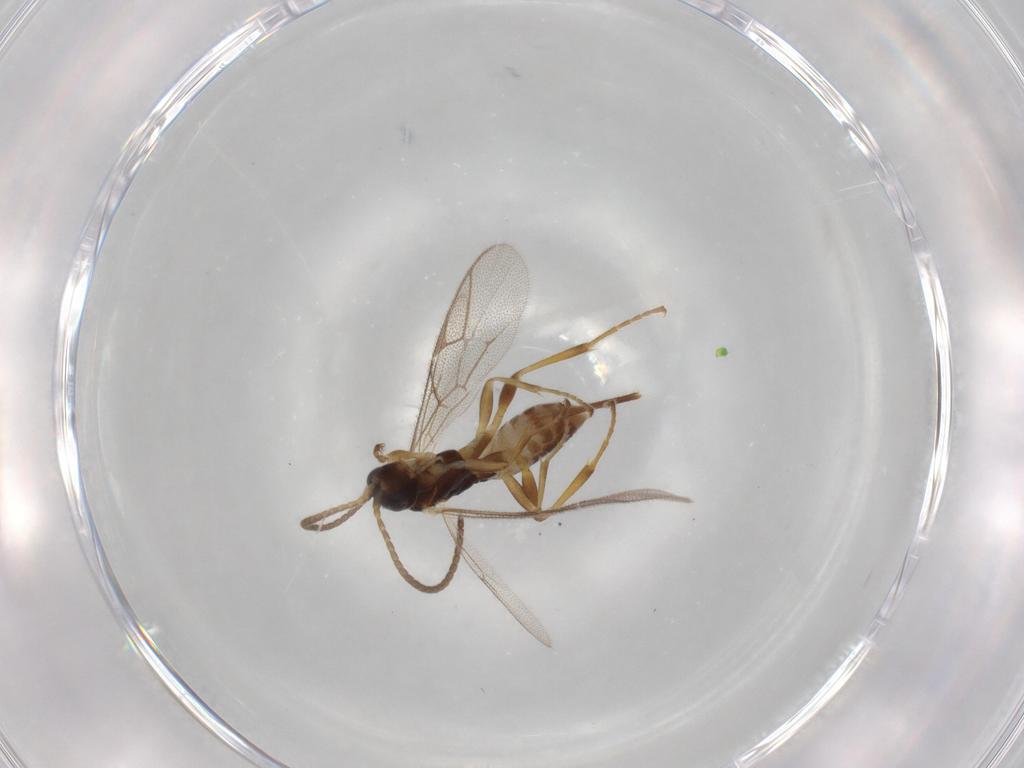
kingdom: Animalia
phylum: Arthropoda
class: Insecta
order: Hymenoptera
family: Ichneumonidae
